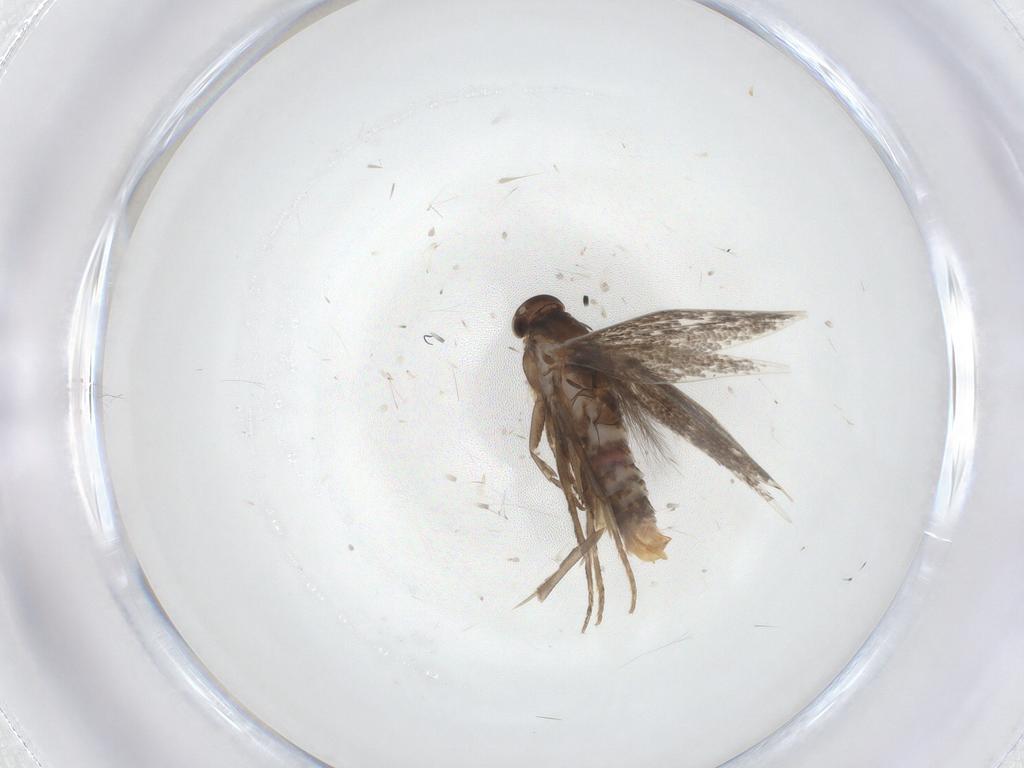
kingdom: Animalia
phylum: Arthropoda
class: Insecta
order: Lepidoptera
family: Elachistidae
